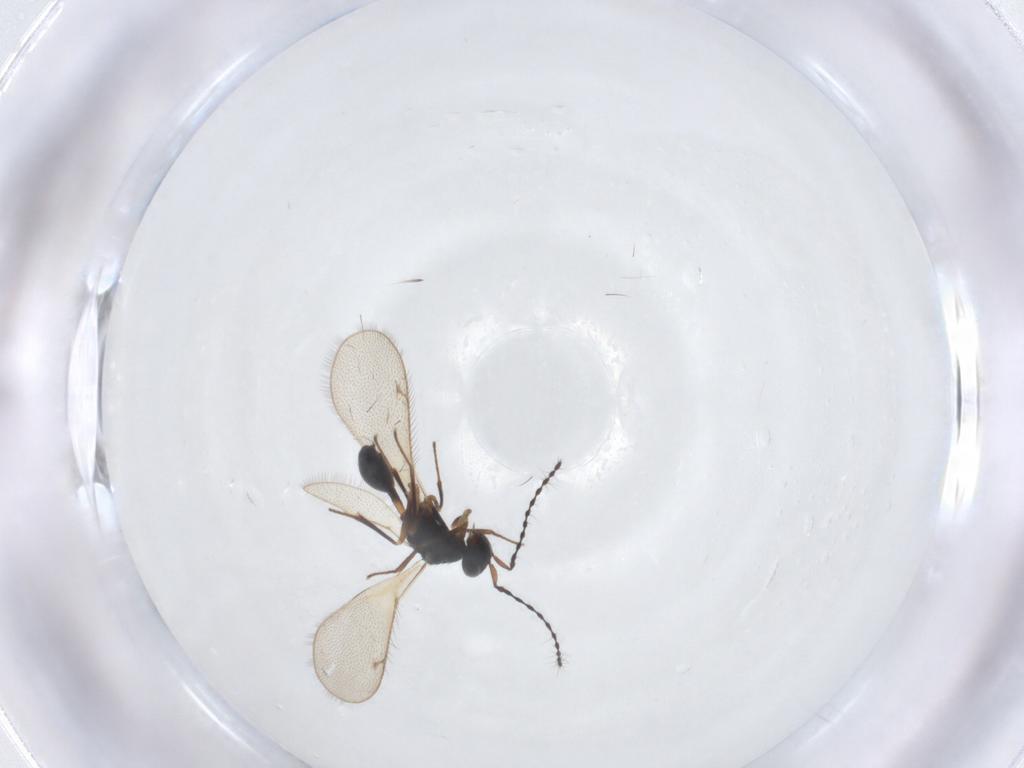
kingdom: Animalia
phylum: Arthropoda
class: Insecta
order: Hymenoptera
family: Diparidae
